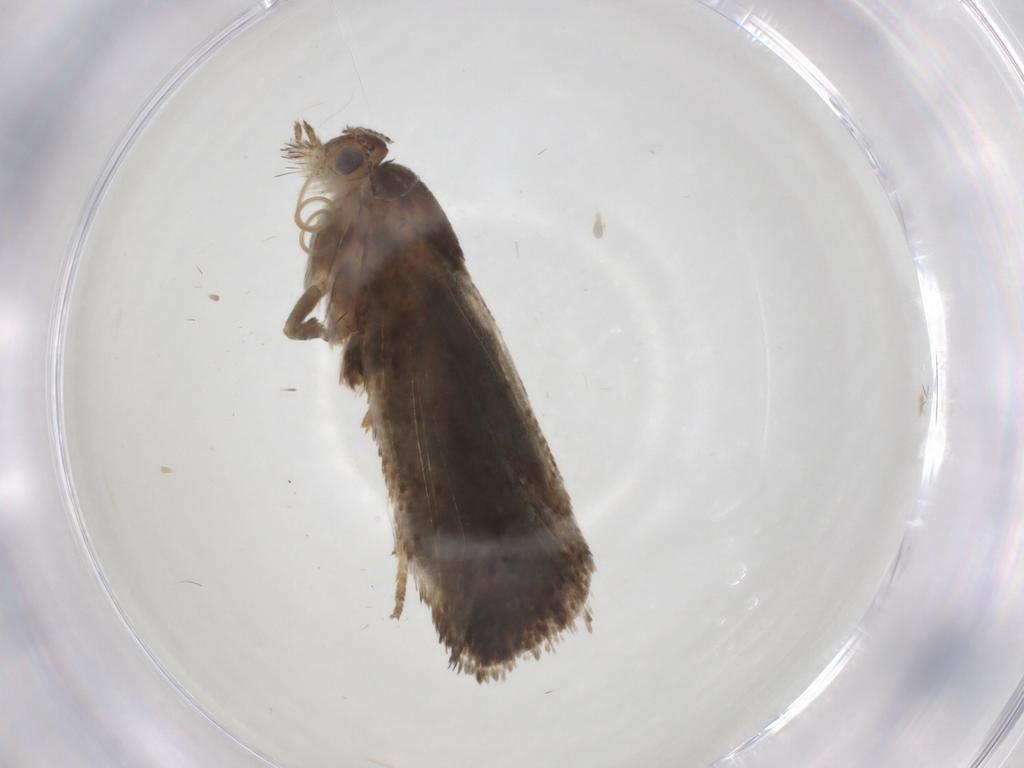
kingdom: Animalia
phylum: Arthropoda
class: Insecta
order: Lepidoptera
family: Choreutidae
